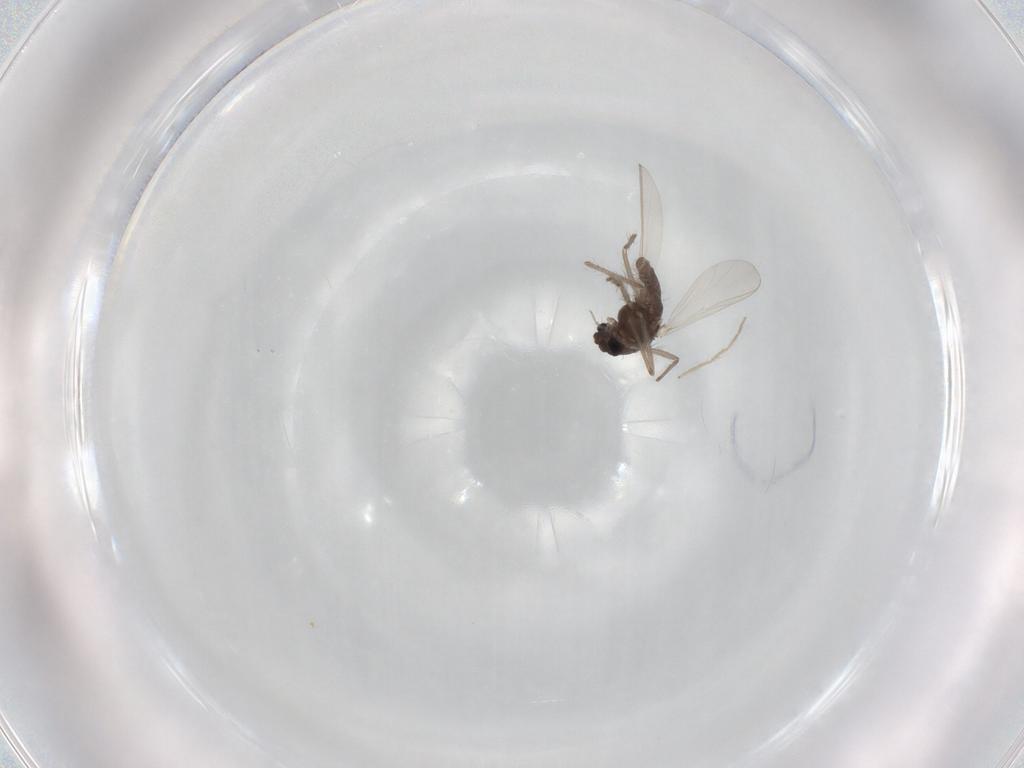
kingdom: Animalia
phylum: Arthropoda
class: Insecta
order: Diptera
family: Chironomidae
